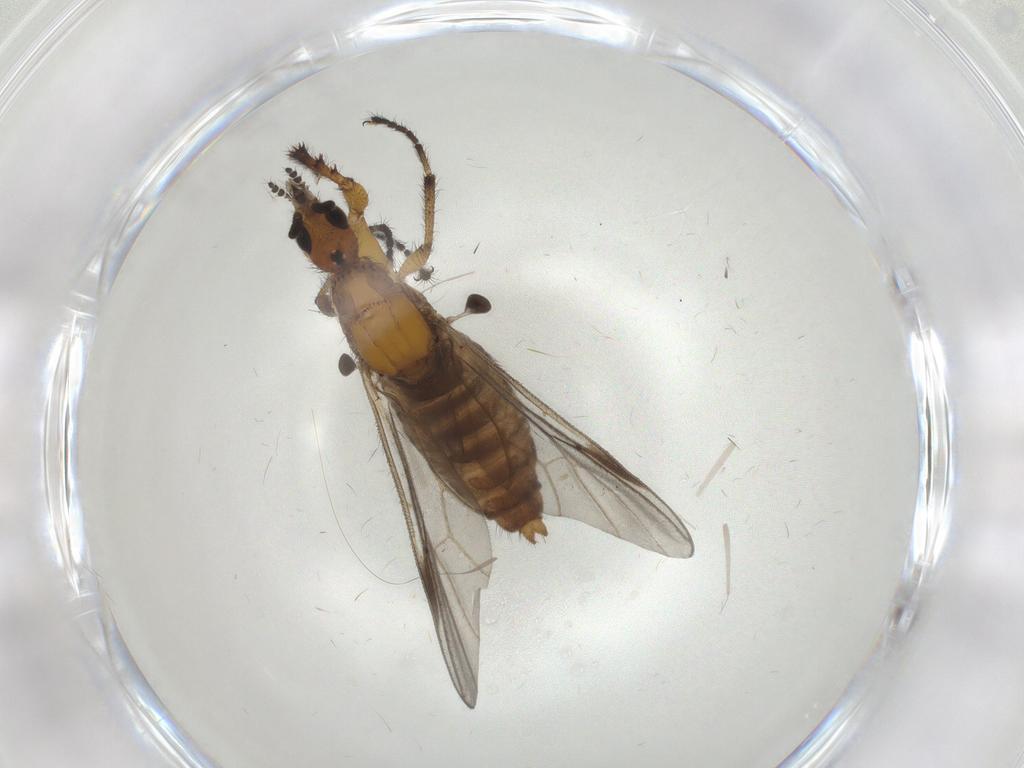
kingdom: Animalia
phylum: Arthropoda
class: Insecta
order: Diptera
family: Bibionidae
